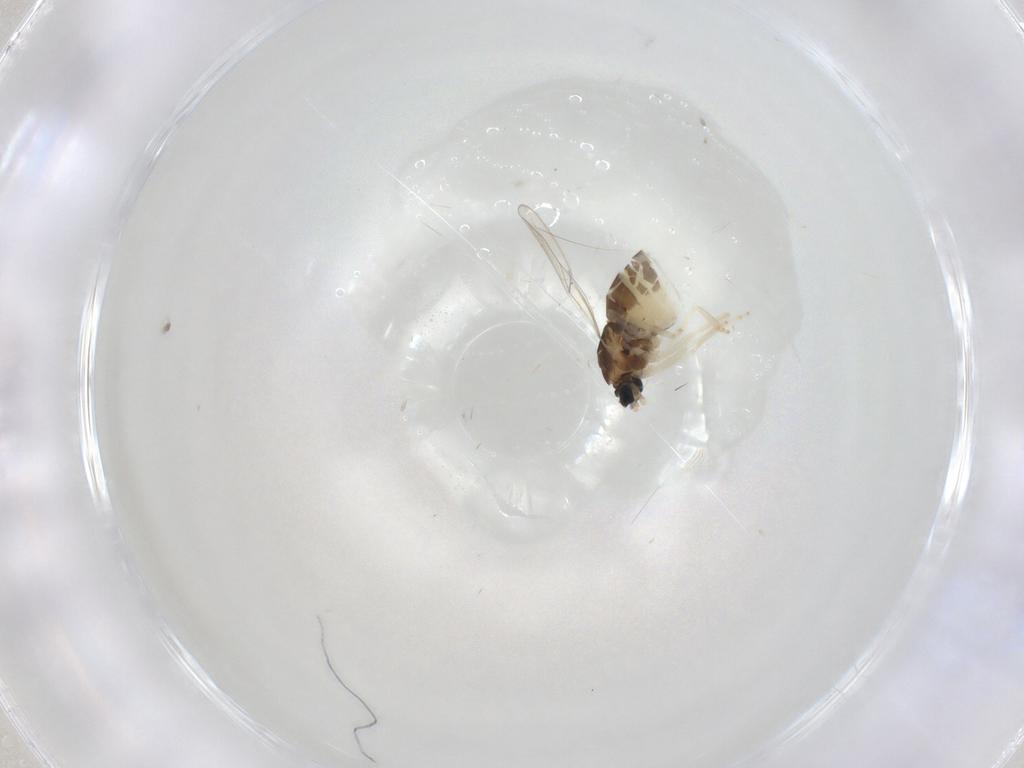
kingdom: Animalia
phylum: Arthropoda
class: Insecta
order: Diptera
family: Cecidomyiidae
